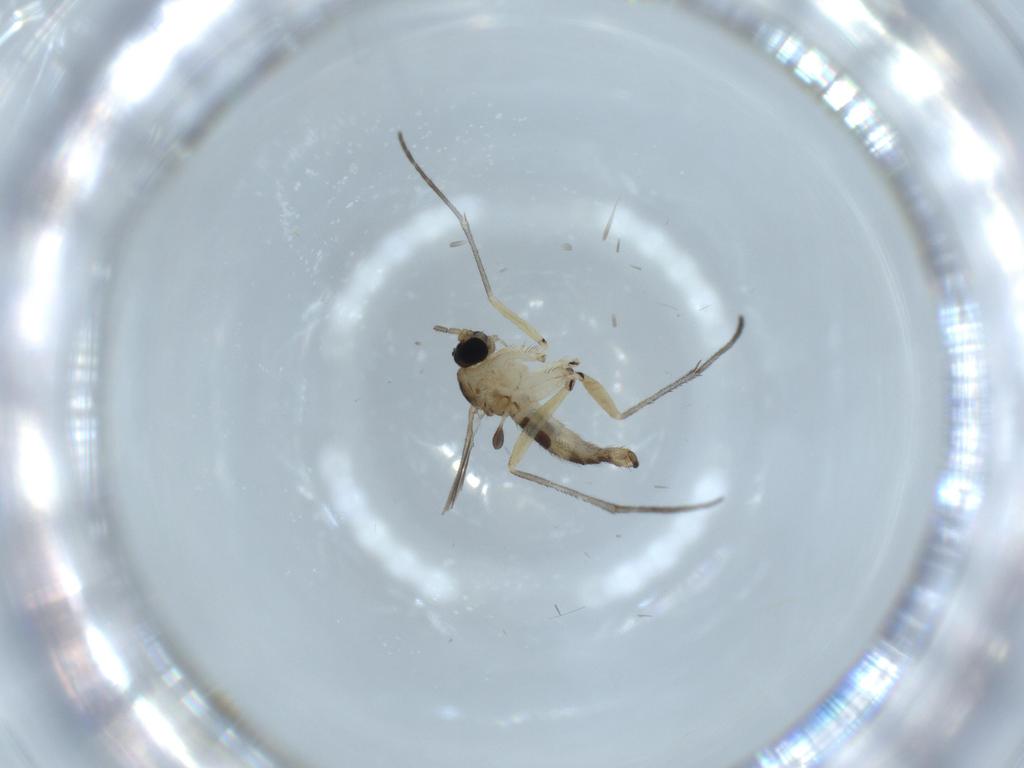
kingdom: Animalia
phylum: Arthropoda
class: Insecta
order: Diptera
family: Sciaridae
